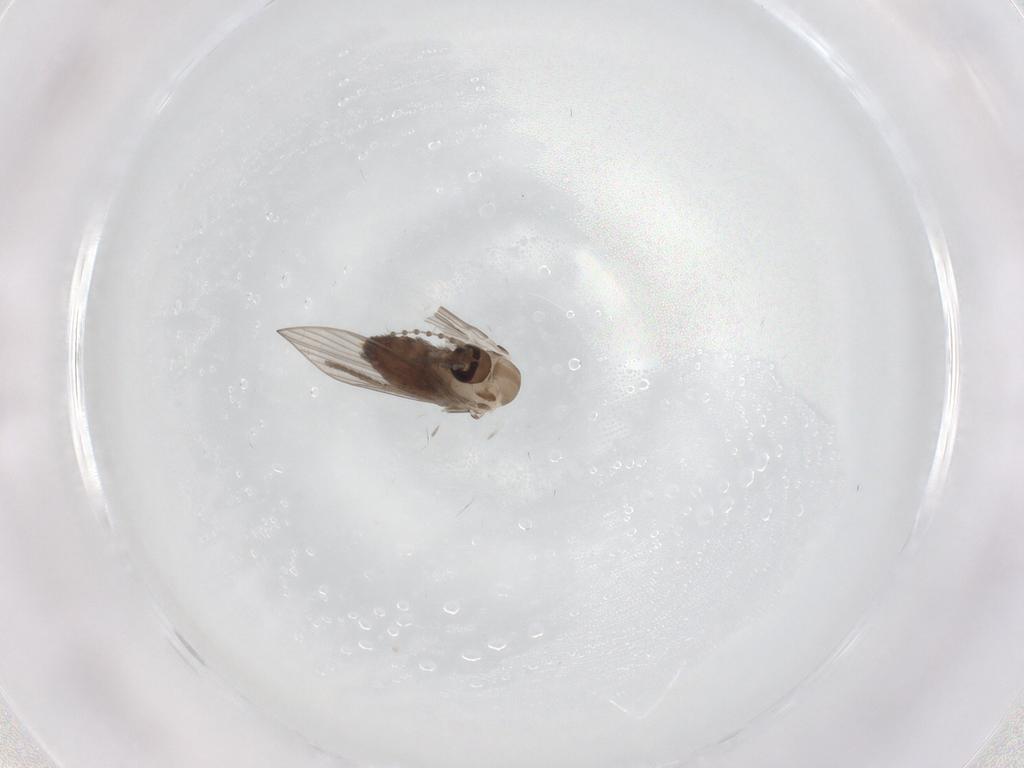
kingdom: Animalia
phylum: Arthropoda
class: Insecta
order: Diptera
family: Psychodidae
